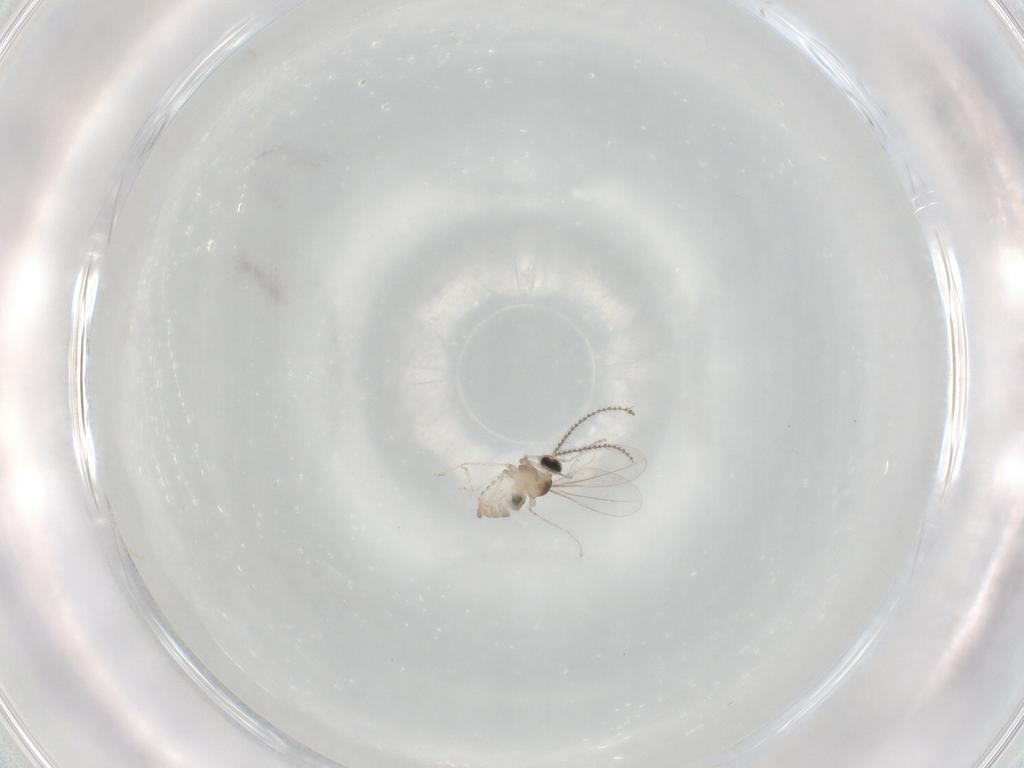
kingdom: Animalia
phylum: Arthropoda
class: Insecta
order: Diptera
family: Cecidomyiidae
